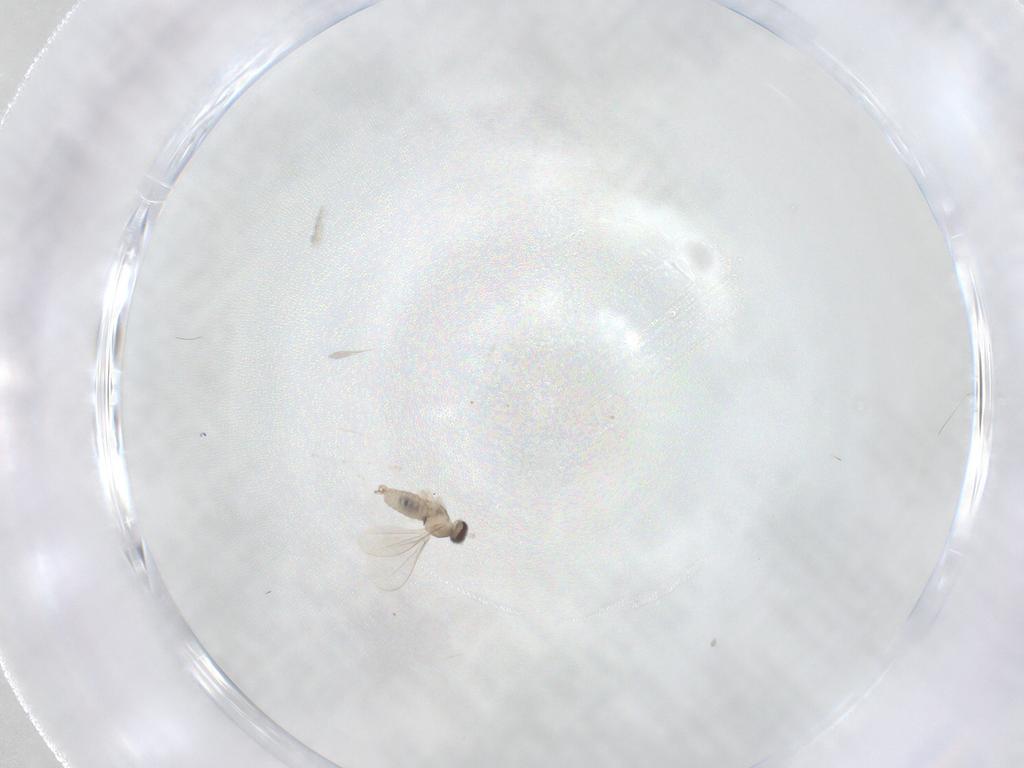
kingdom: Animalia
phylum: Arthropoda
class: Insecta
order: Diptera
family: Cecidomyiidae
